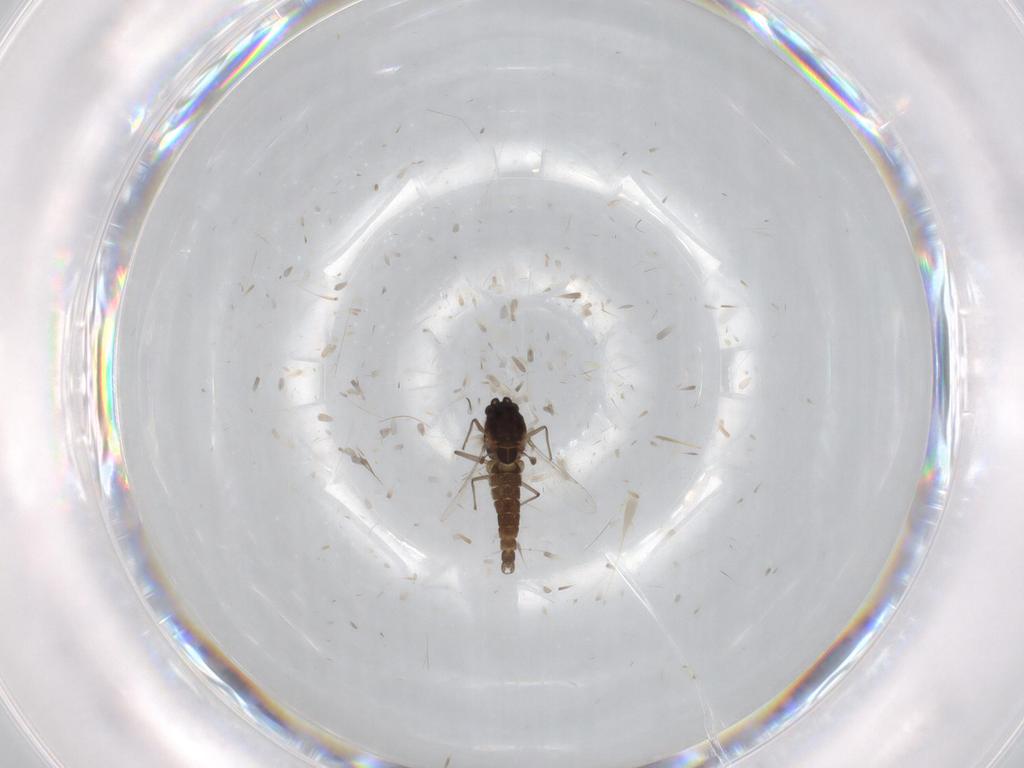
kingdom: Animalia
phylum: Arthropoda
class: Insecta
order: Diptera
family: Chironomidae
